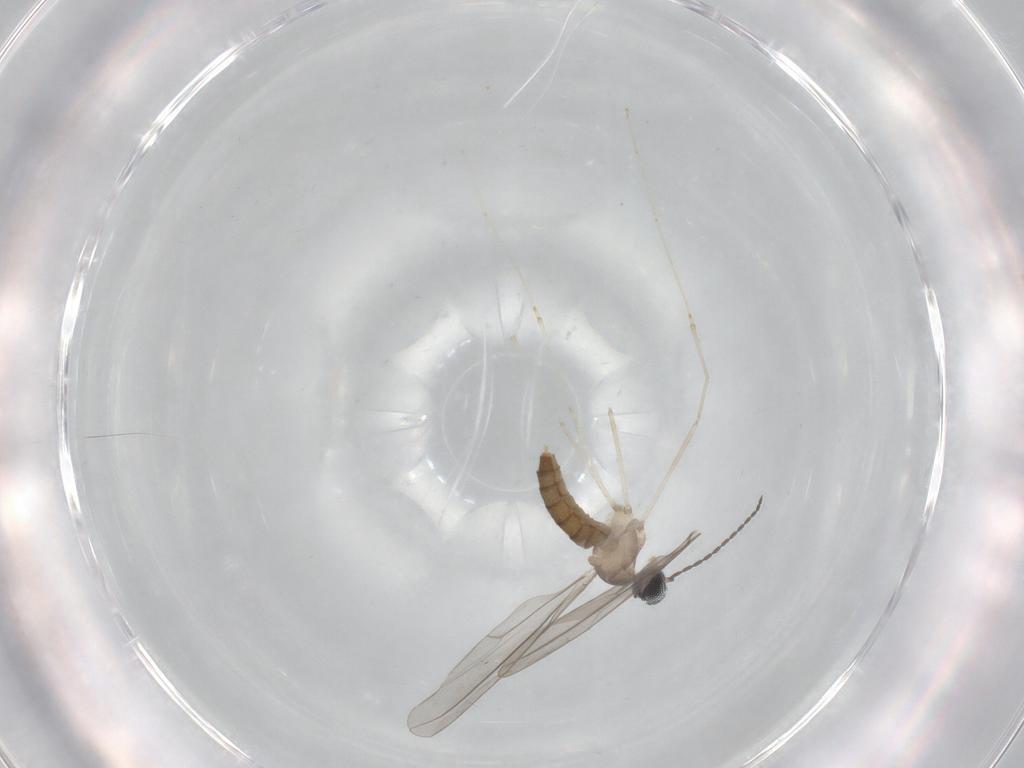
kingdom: Animalia
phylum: Arthropoda
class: Insecta
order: Diptera
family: Cecidomyiidae
